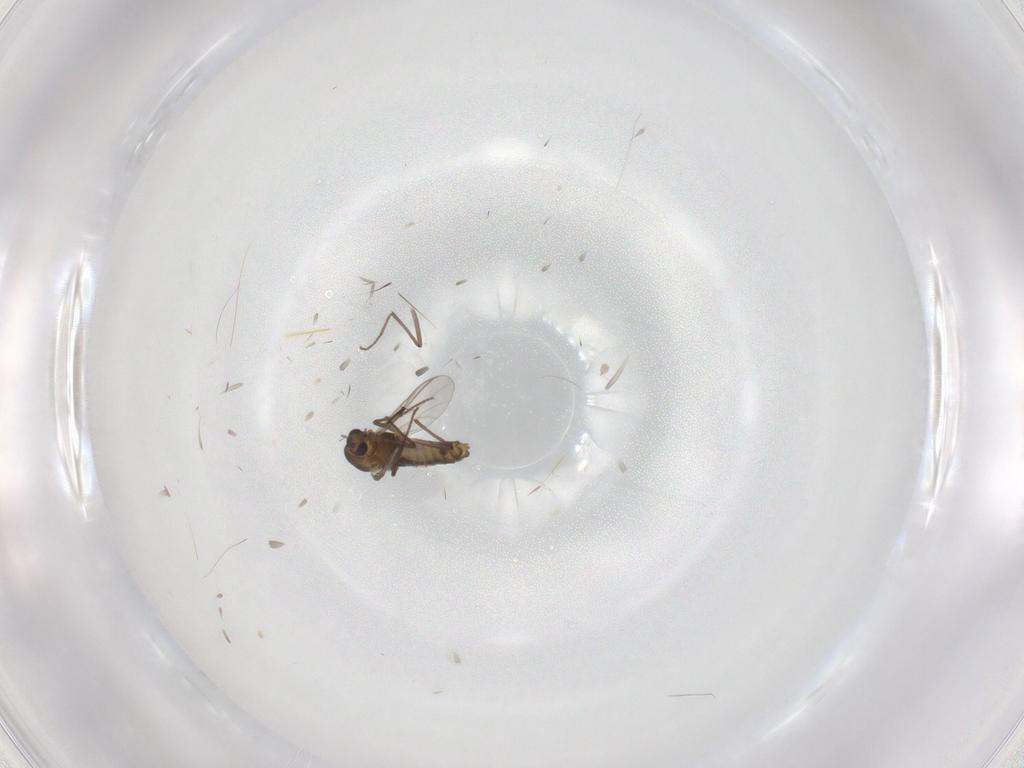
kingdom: Animalia
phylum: Arthropoda
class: Insecta
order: Diptera
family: Chironomidae
